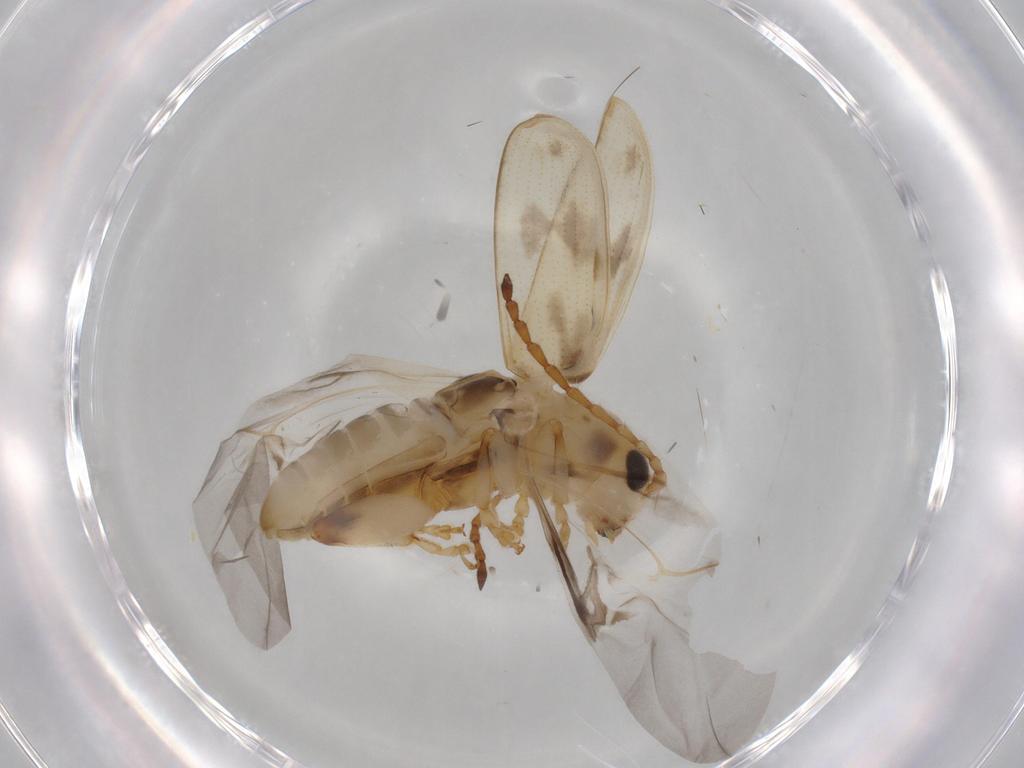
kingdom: Animalia
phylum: Arthropoda
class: Insecta
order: Coleoptera
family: Chrysomelidae
